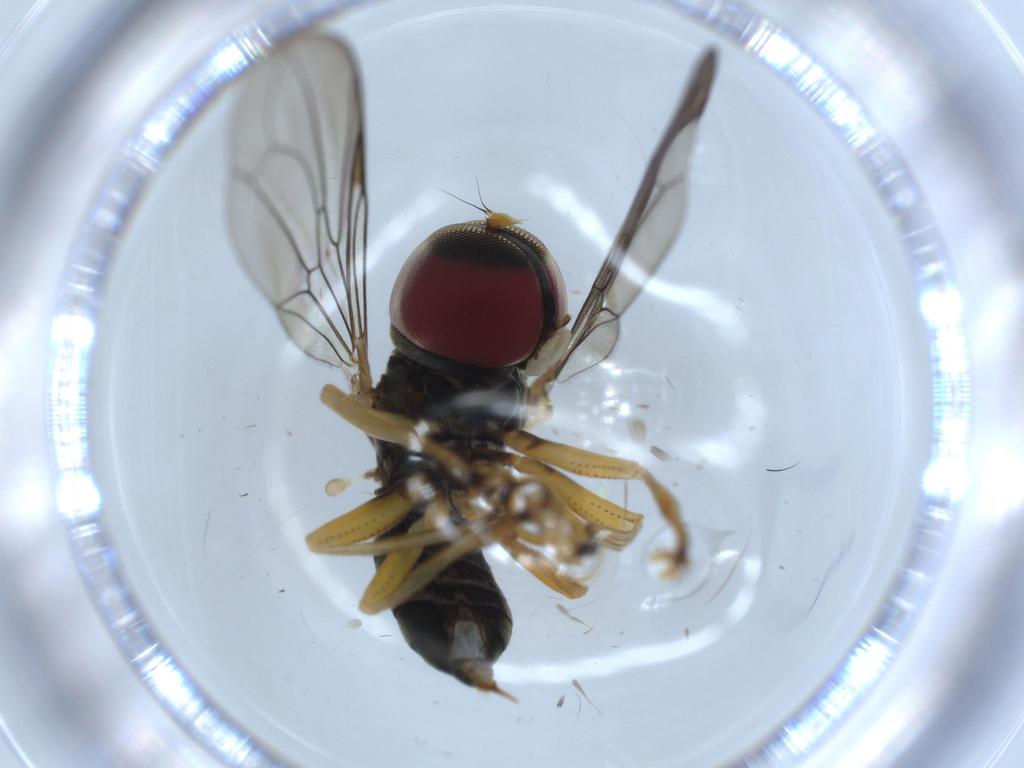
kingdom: Animalia
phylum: Arthropoda
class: Insecta
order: Diptera
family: Clusiidae
